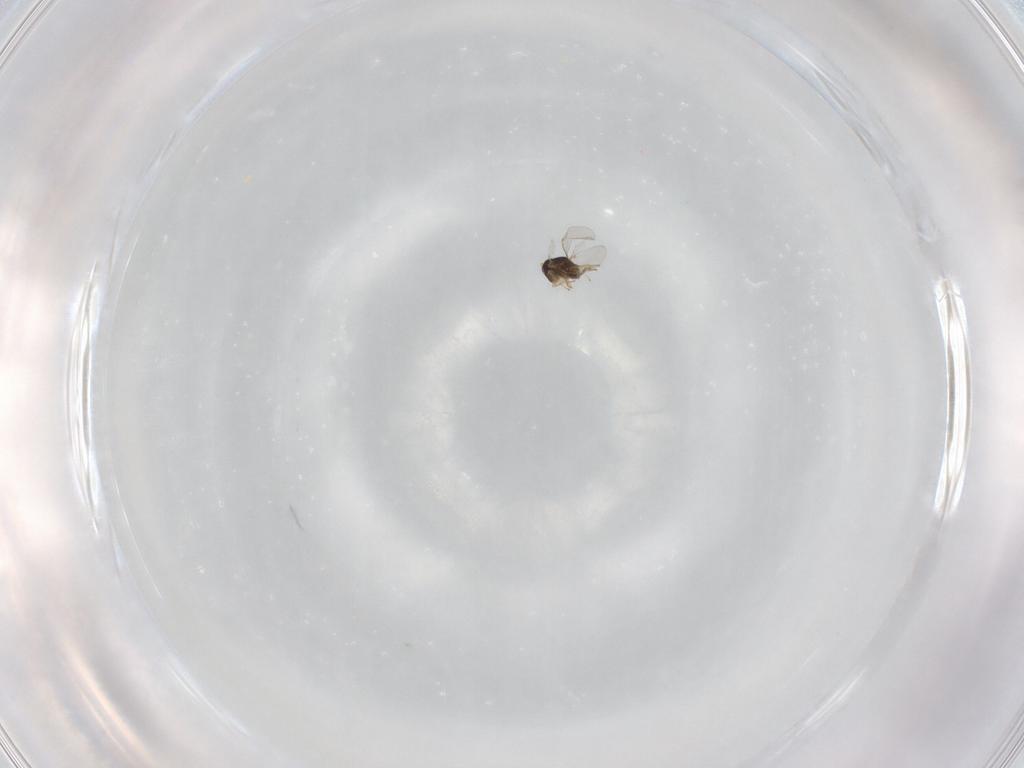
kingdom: Animalia
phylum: Arthropoda
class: Insecta
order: Hymenoptera
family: Encyrtidae
